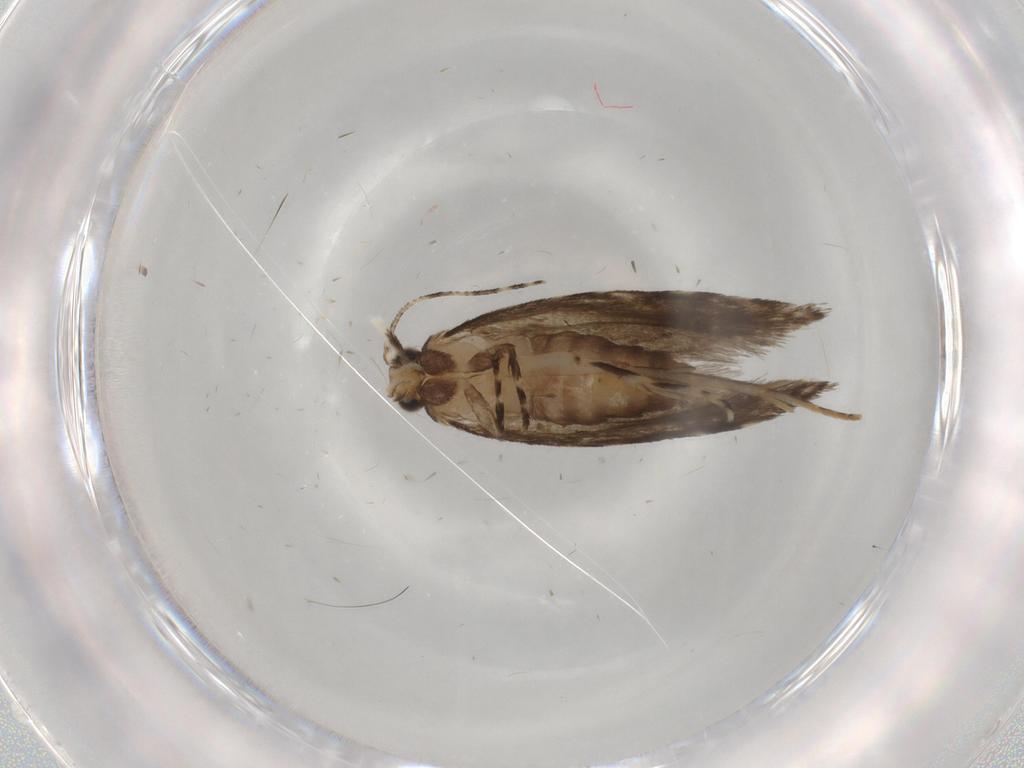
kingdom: Animalia
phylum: Arthropoda
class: Insecta
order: Lepidoptera
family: Tineidae
